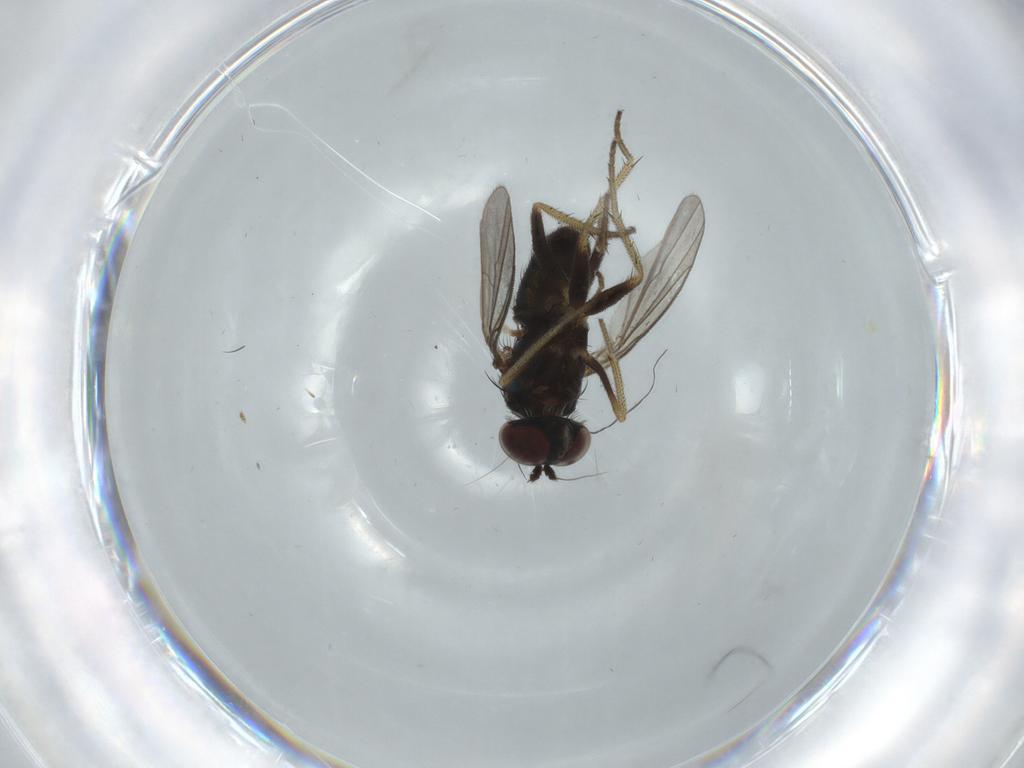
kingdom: Animalia
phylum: Arthropoda
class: Insecta
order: Diptera
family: Dolichopodidae
